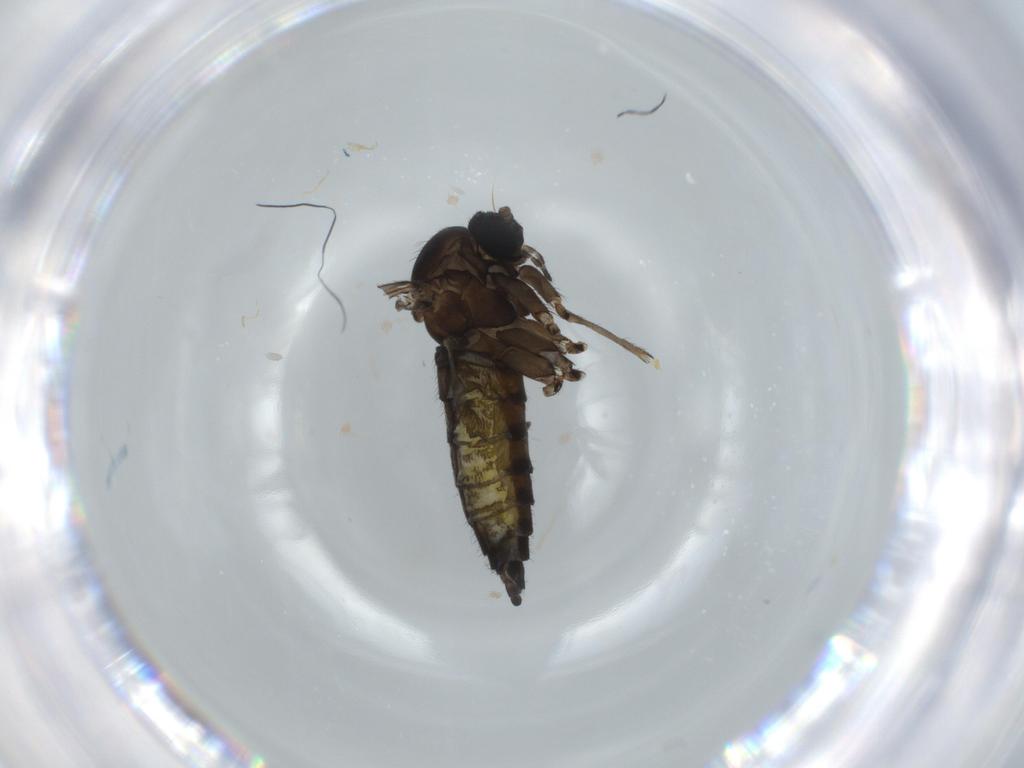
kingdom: Animalia
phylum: Arthropoda
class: Insecta
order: Diptera
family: Sciaridae
